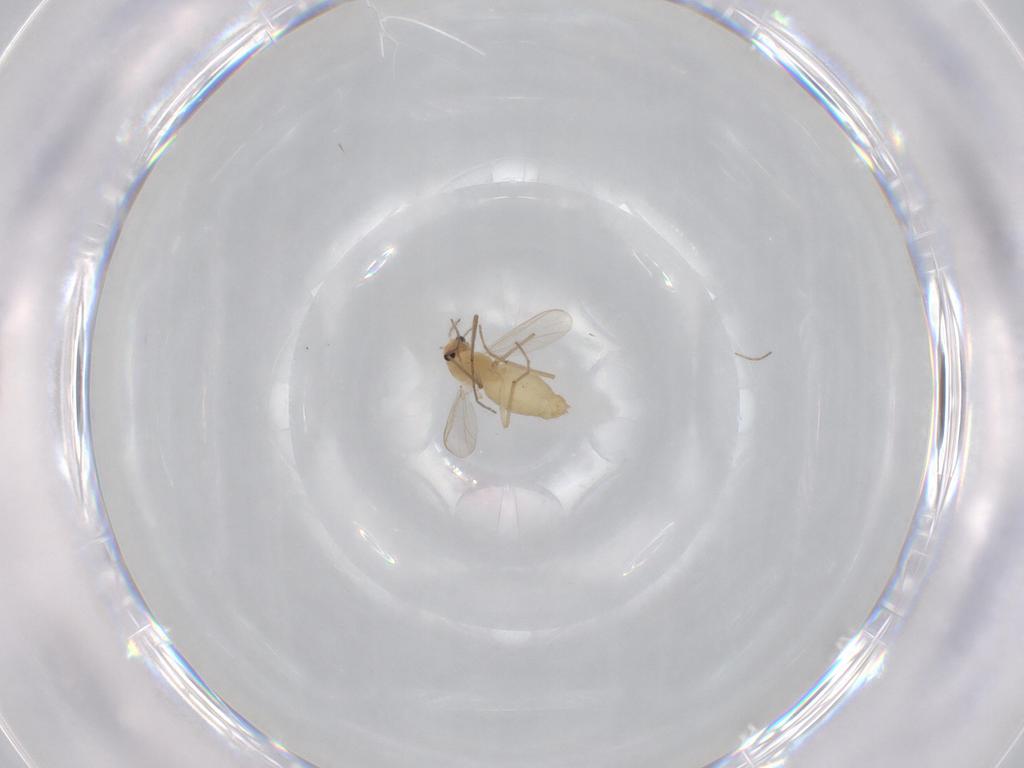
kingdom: Animalia
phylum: Arthropoda
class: Insecta
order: Diptera
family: Chironomidae
